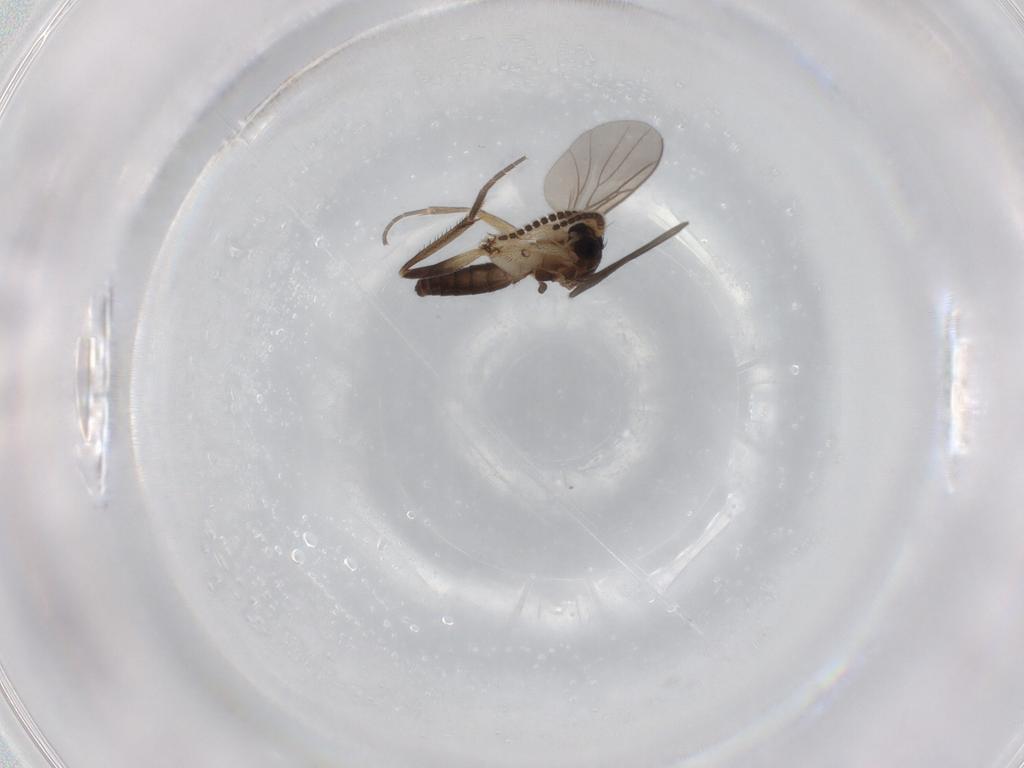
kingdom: Animalia
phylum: Arthropoda
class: Insecta
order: Diptera
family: Mycetophilidae
